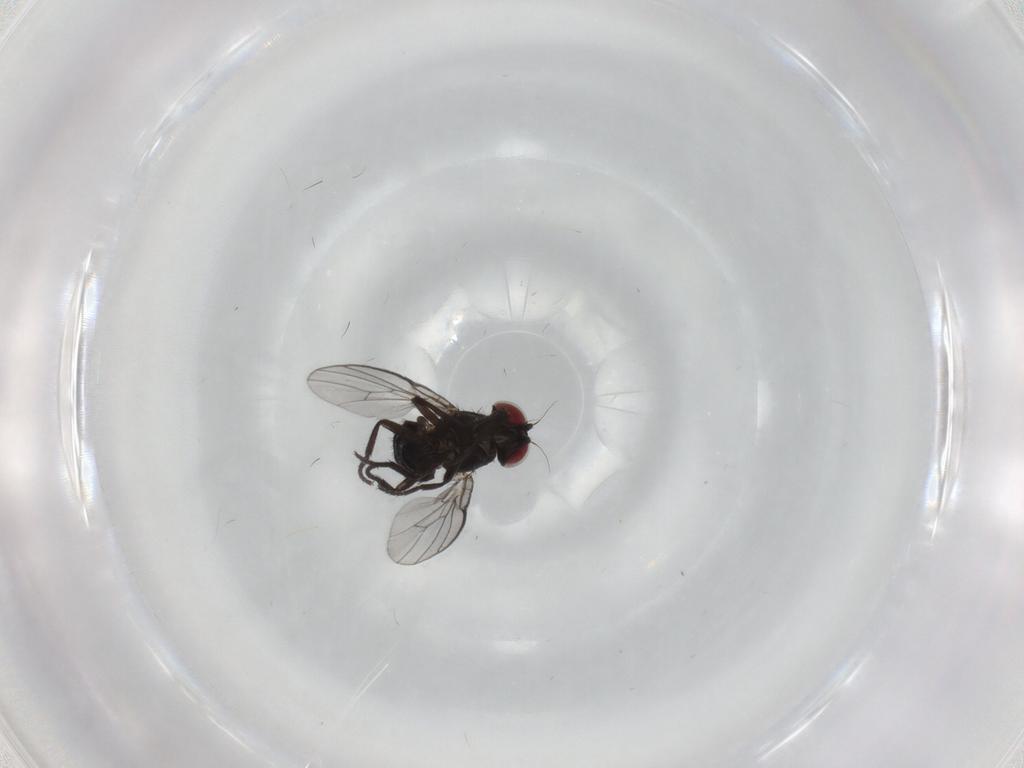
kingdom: Animalia
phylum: Arthropoda
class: Insecta
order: Diptera
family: Agromyzidae
